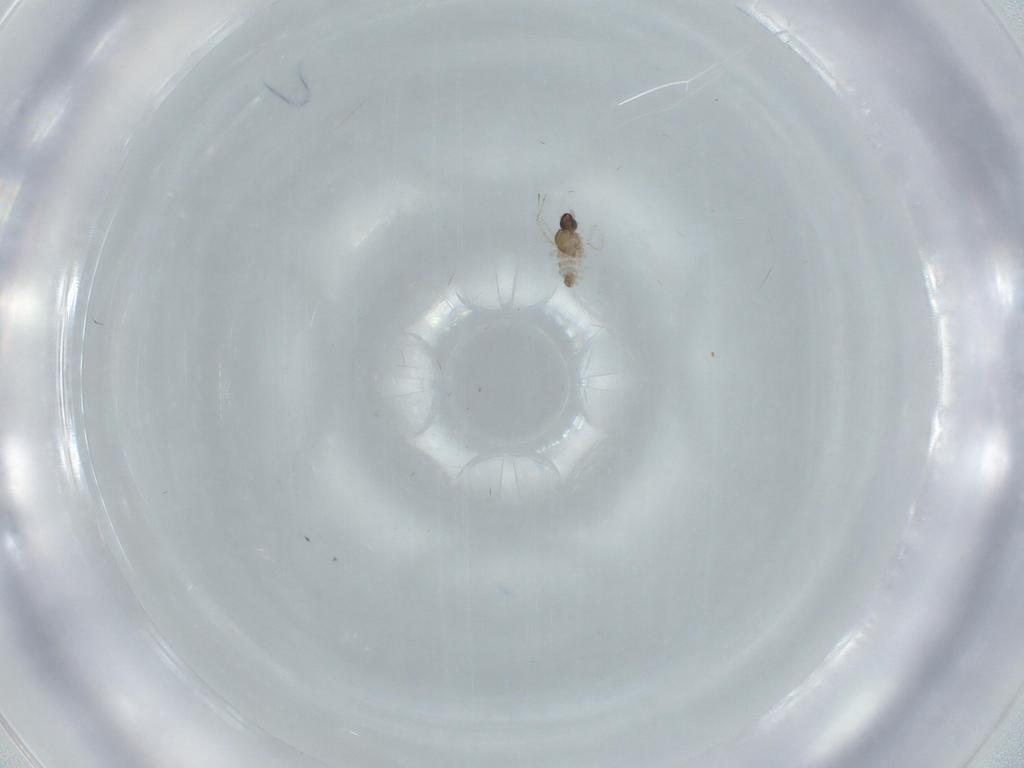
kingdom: Animalia
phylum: Arthropoda
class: Insecta
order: Diptera
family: Cecidomyiidae
